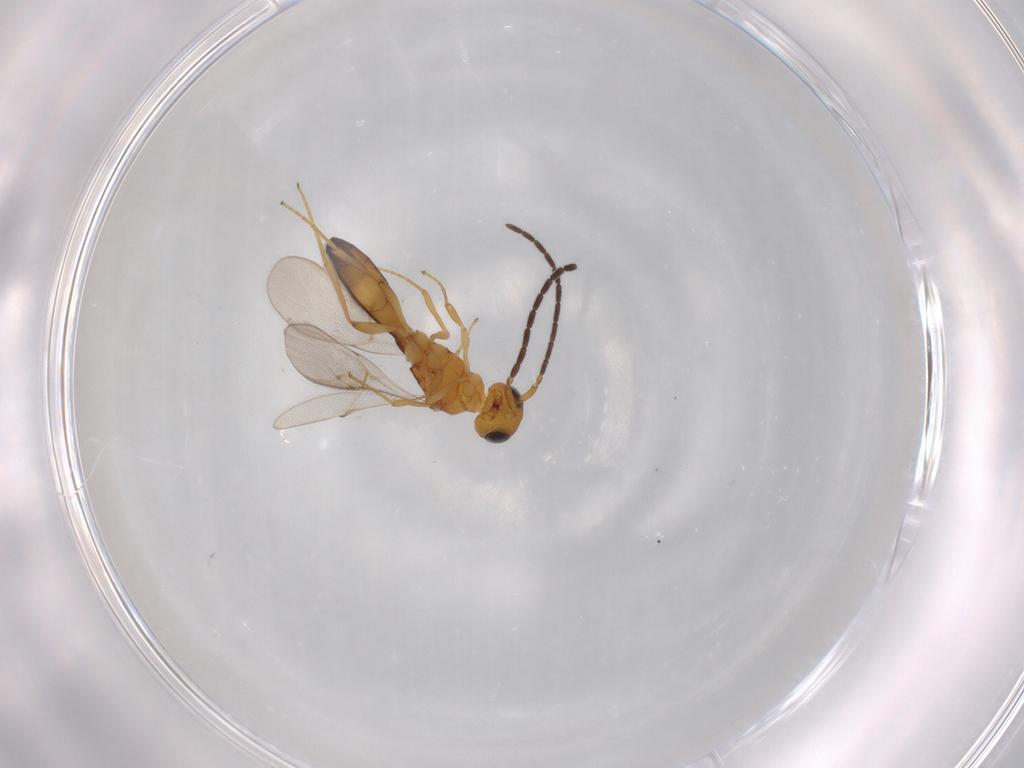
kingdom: Animalia
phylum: Arthropoda
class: Insecta
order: Hymenoptera
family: Scelionidae
